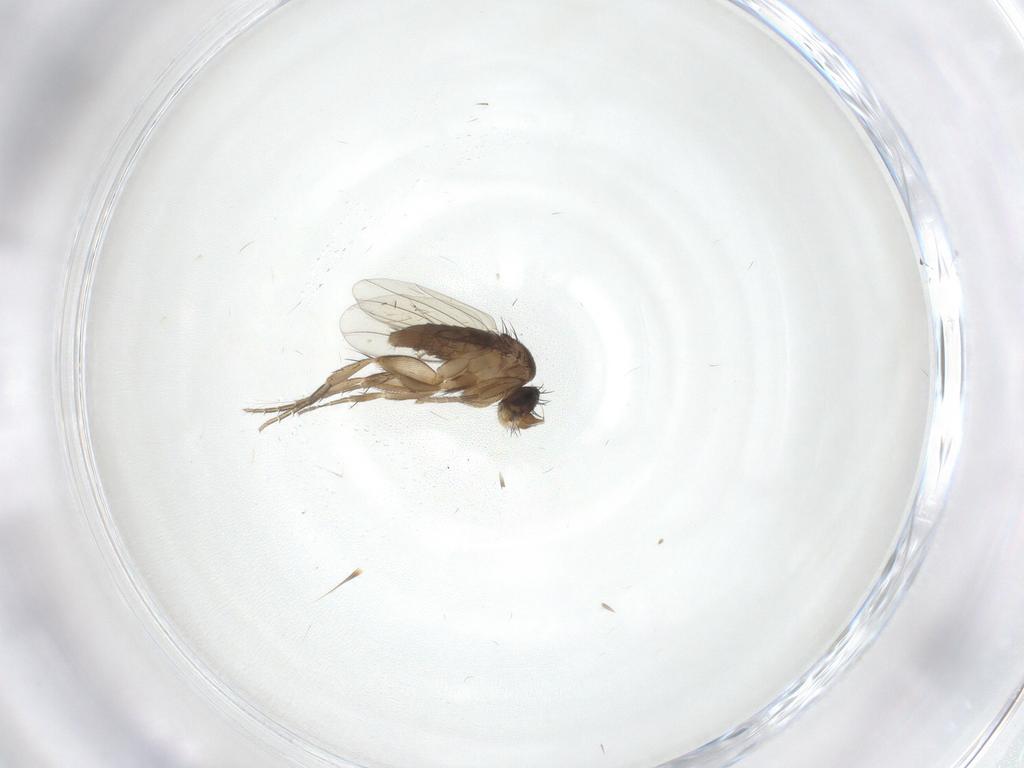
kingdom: Animalia
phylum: Arthropoda
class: Insecta
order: Diptera
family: Phoridae
